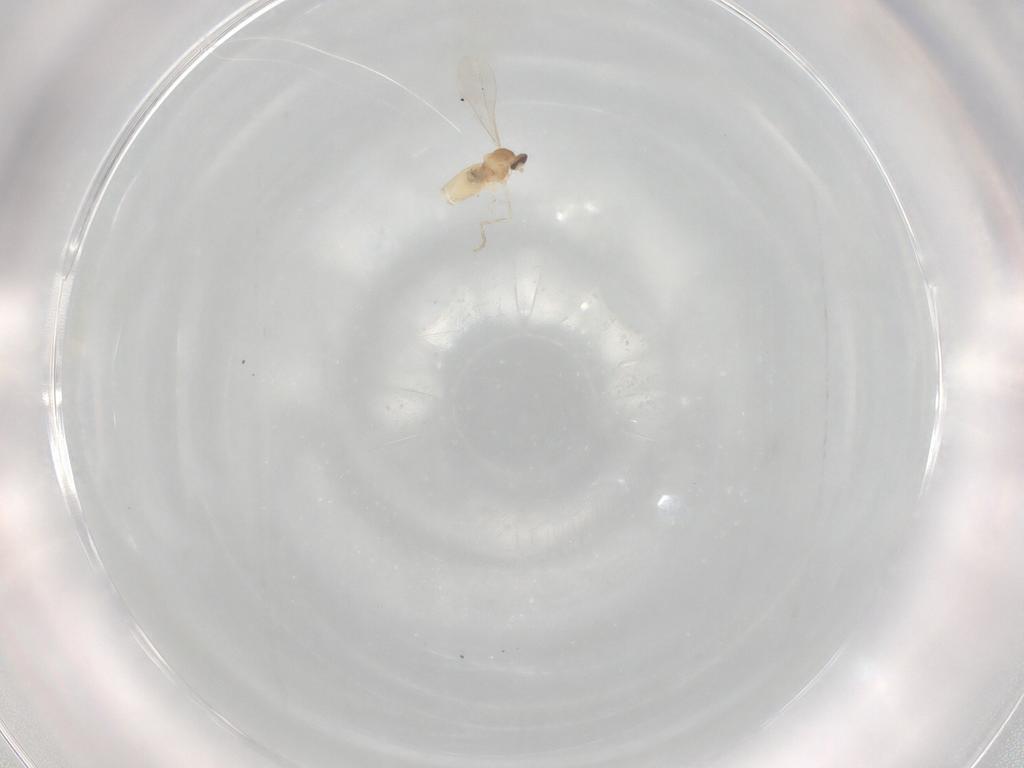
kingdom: Animalia
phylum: Arthropoda
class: Insecta
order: Diptera
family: Cecidomyiidae
